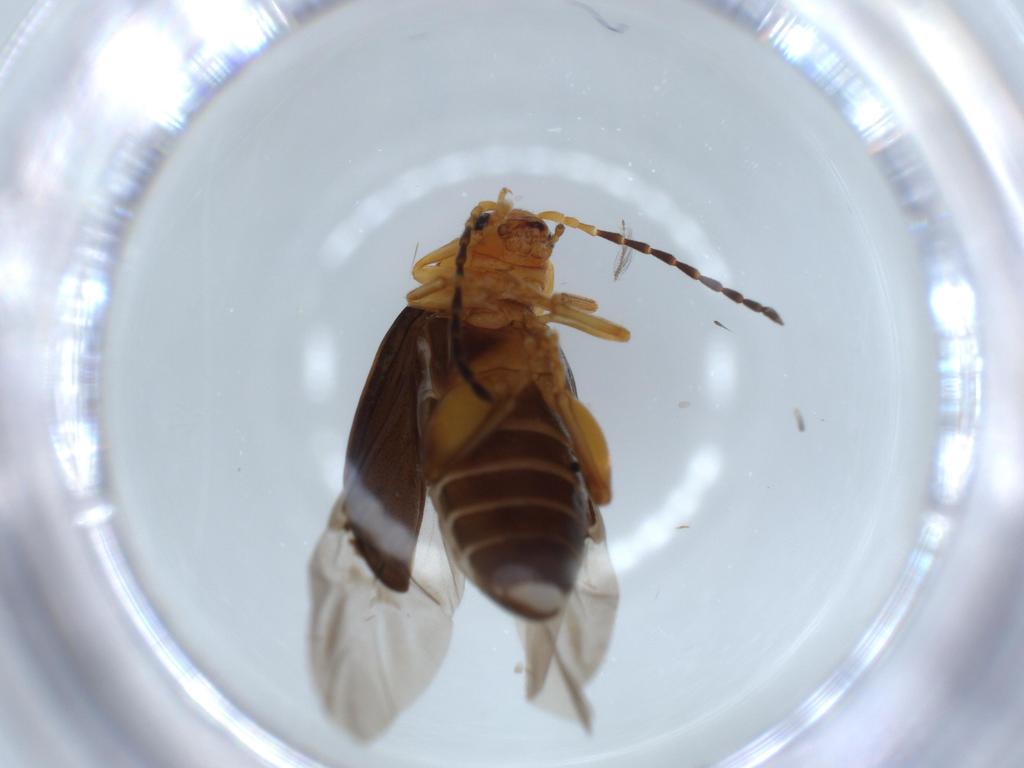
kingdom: Animalia
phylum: Arthropoda
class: Insecta
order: Coleoptera
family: Chrysomelidae
